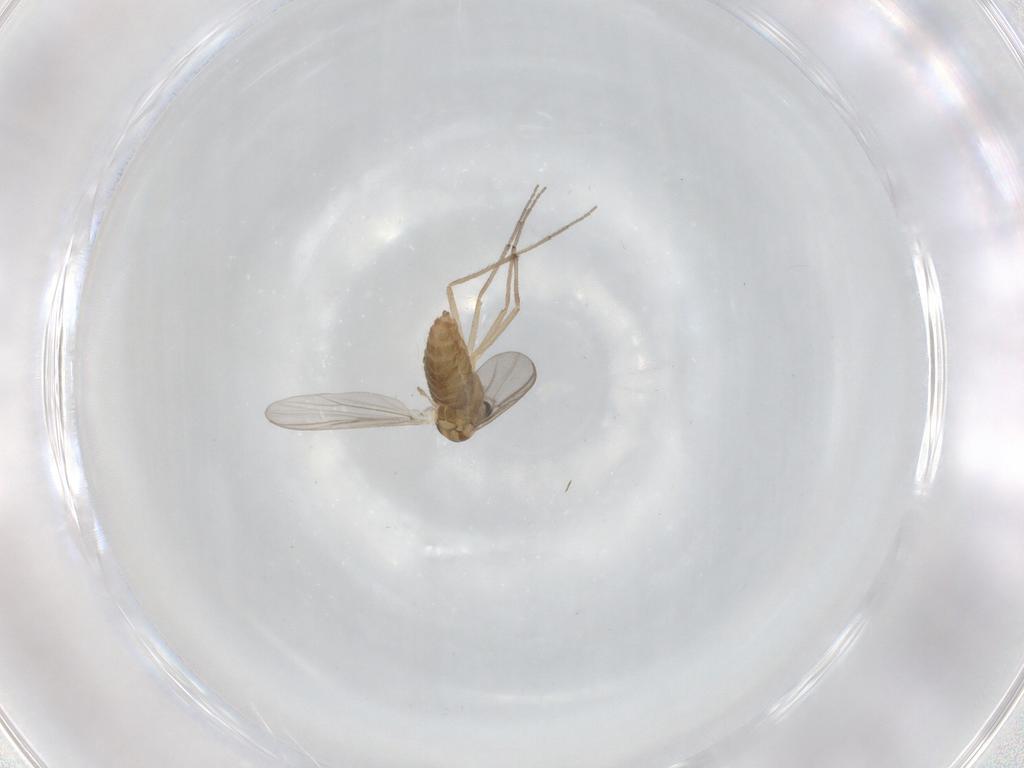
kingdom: Animalia
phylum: Arthropoda
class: Insecta
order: Diptera
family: Chironomidae
